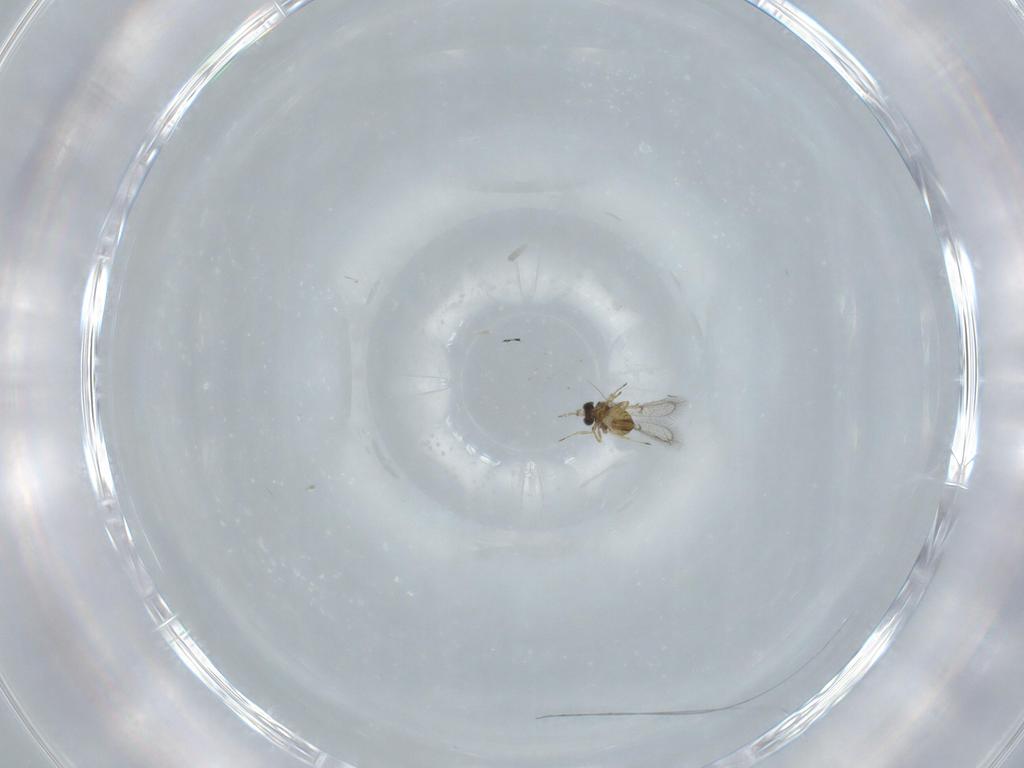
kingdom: Animalia
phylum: Arthropoda
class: Insecta
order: Hymenoptera
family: Trichogrammatidae
